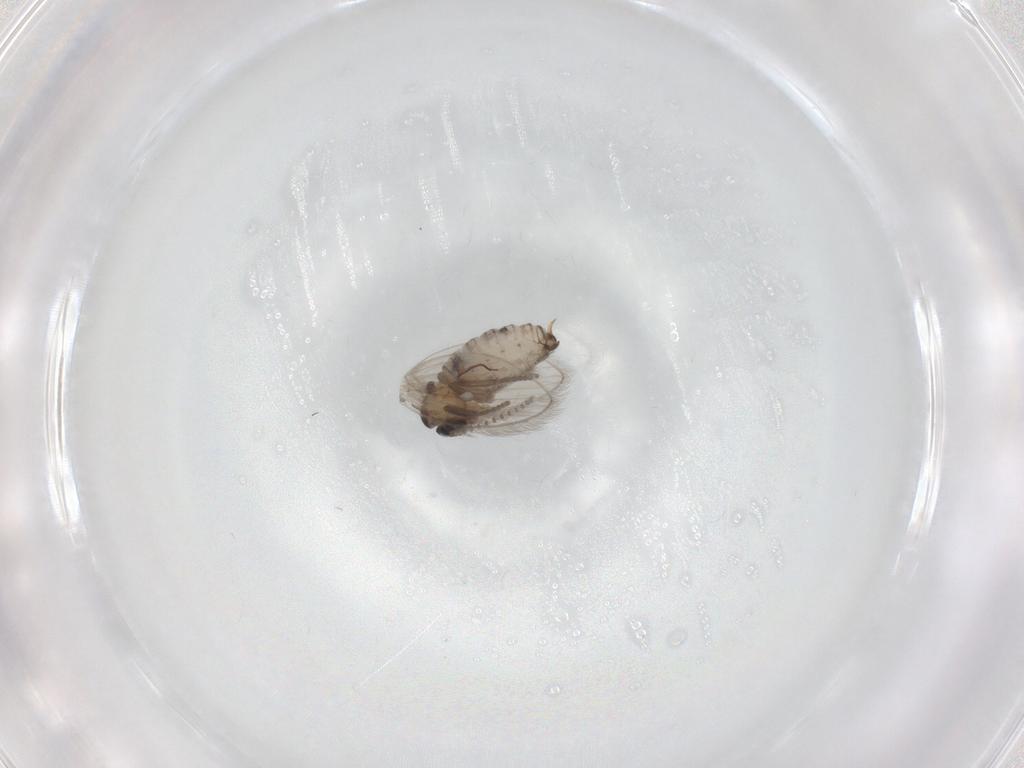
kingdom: Animalia
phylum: Arthropoda
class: Insecta
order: Diptera
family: Psychodidae
